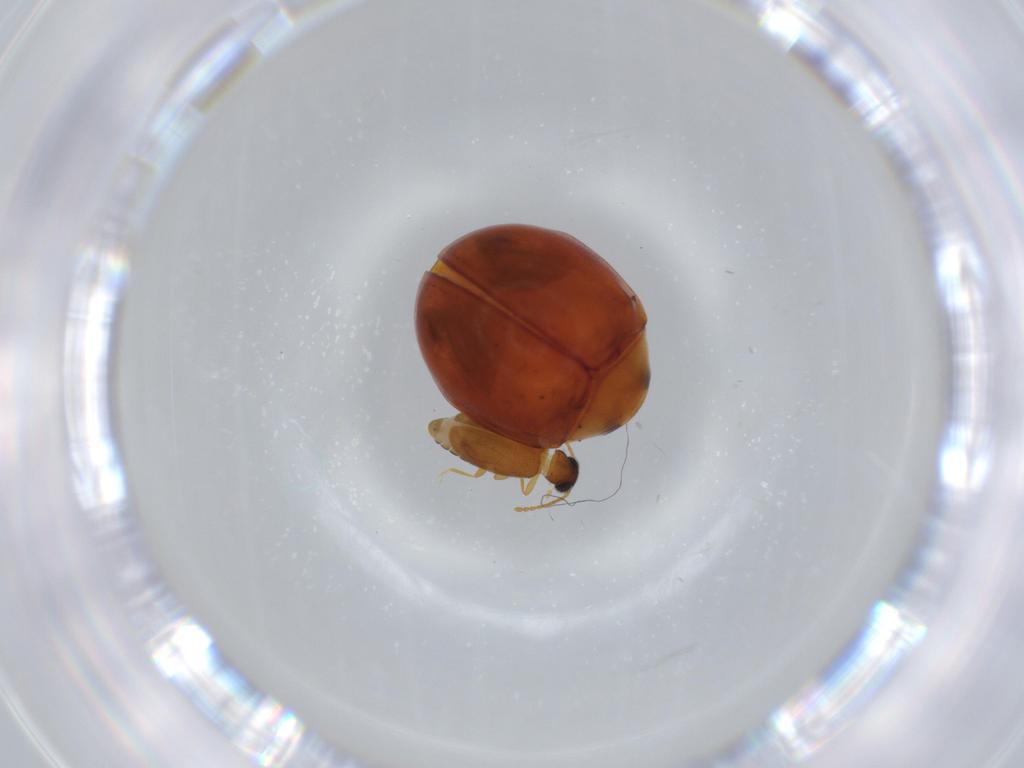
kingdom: Animalia
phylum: Arthropoda
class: Insecta
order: Coleoptera
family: Coccinellidae
